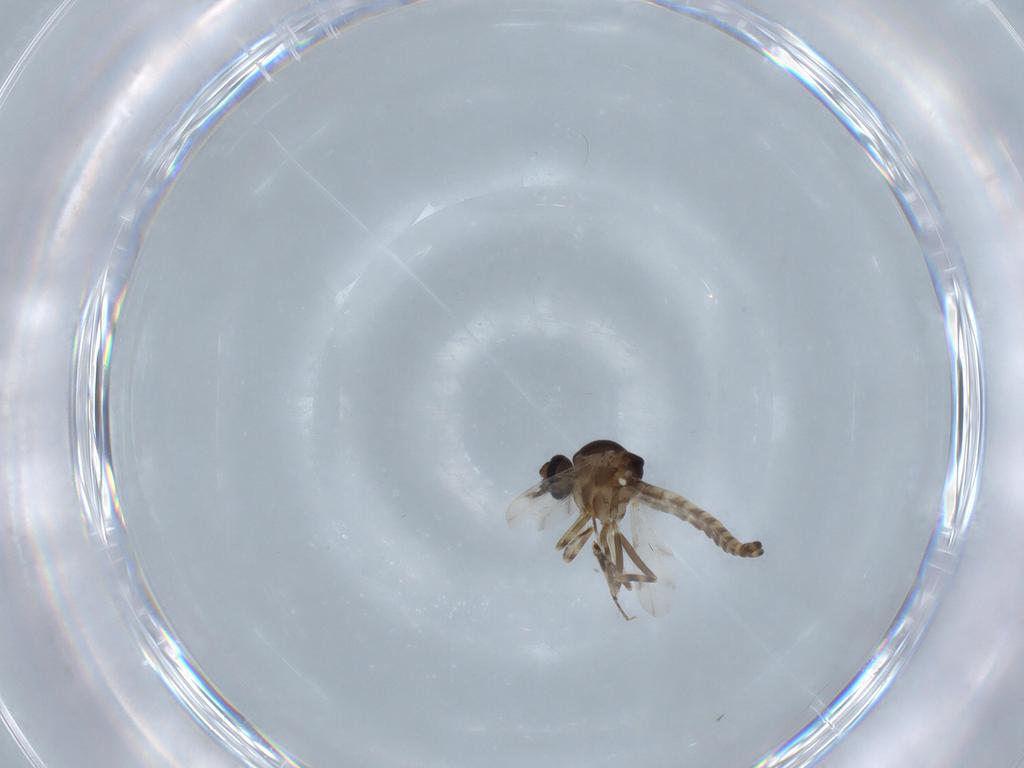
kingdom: Animalia
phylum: Arthropoda
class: Insecta
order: Diptera
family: Ceratopogonidae
